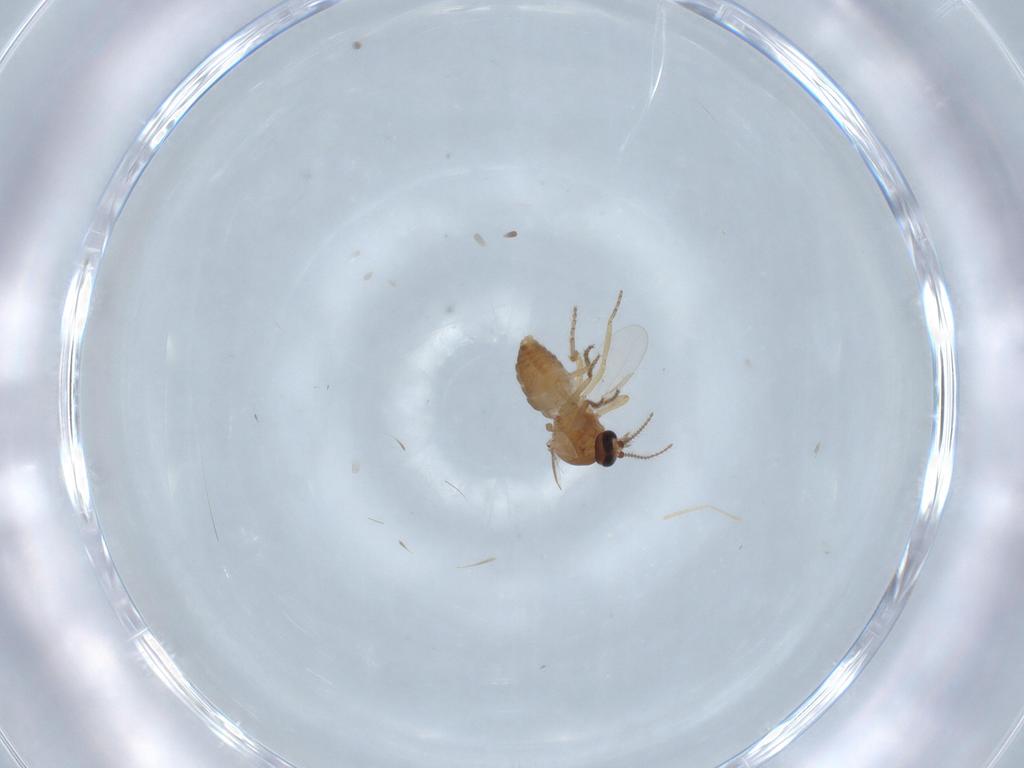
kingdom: Animalia
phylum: Arthropoda
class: Insecta
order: Diptera
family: Ceratopogonidae
